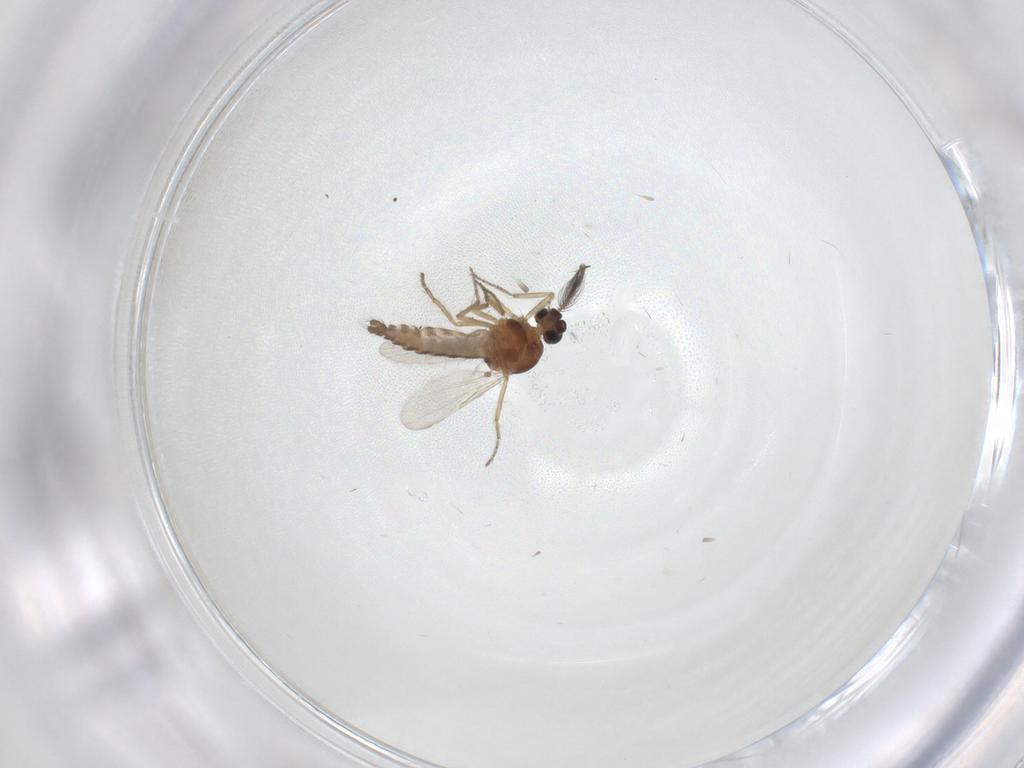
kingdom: Animalia
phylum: Arthropoda
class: Insecta
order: Diptera
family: Ceratopogonidae
